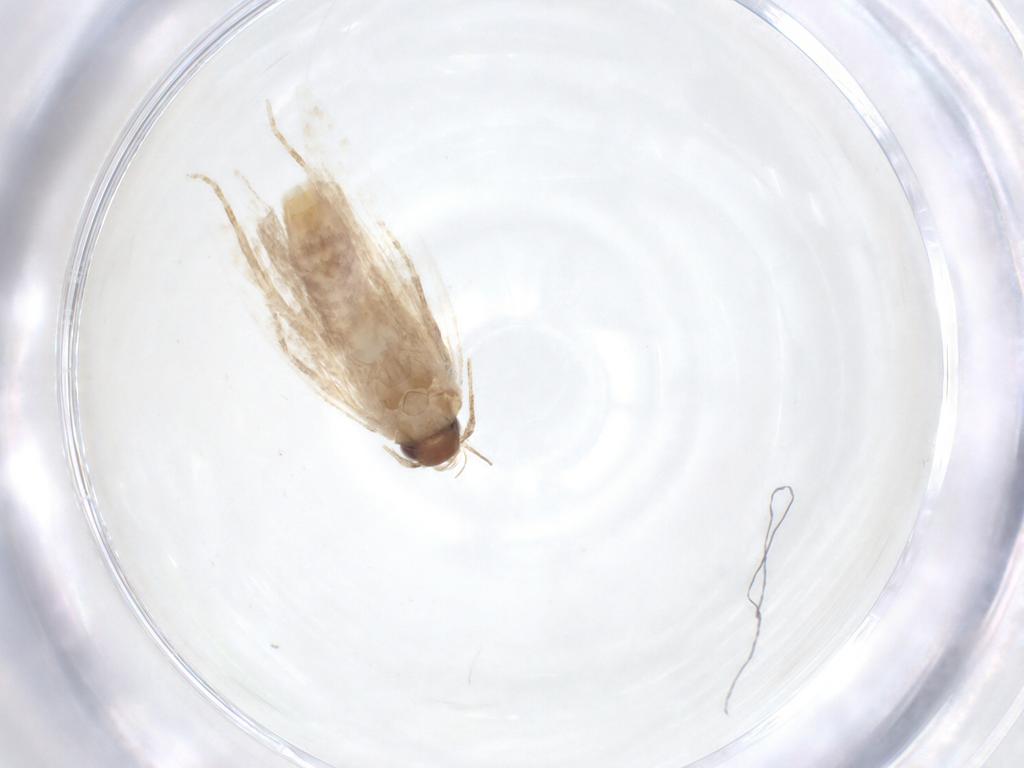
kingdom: Animalia
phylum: Arthropoda
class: Insecta
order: Lepidoptera
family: Gelechiidae
